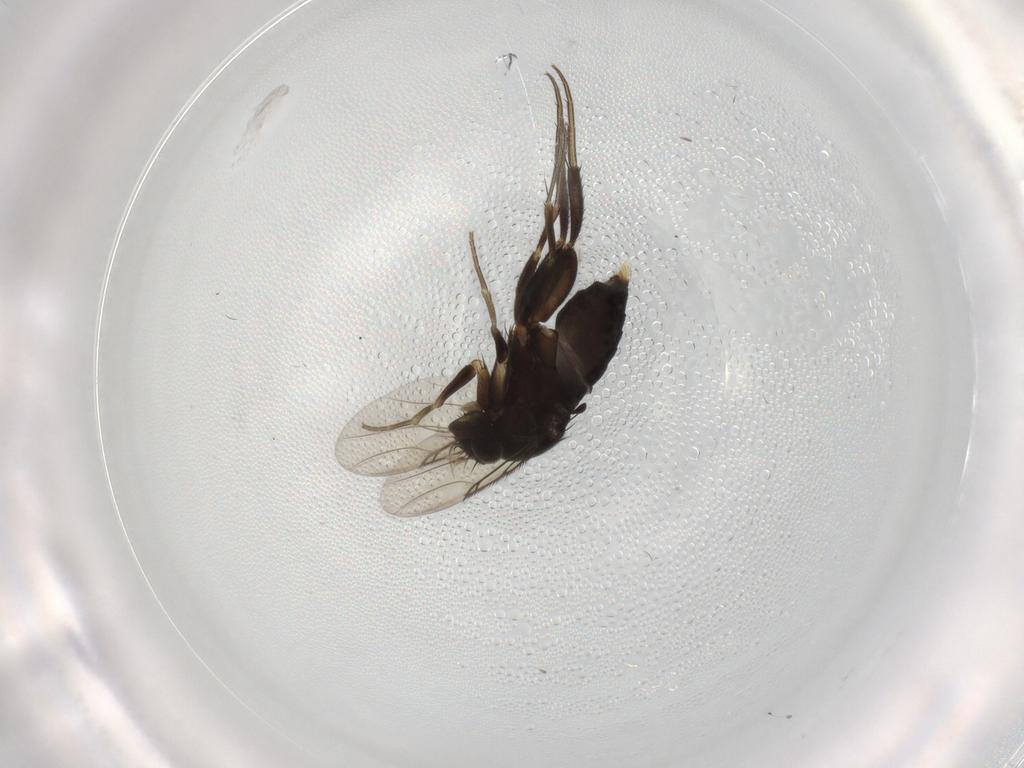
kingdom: Animalia
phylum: Arthropoda
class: Insecta
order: Diptera
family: Phoridae
